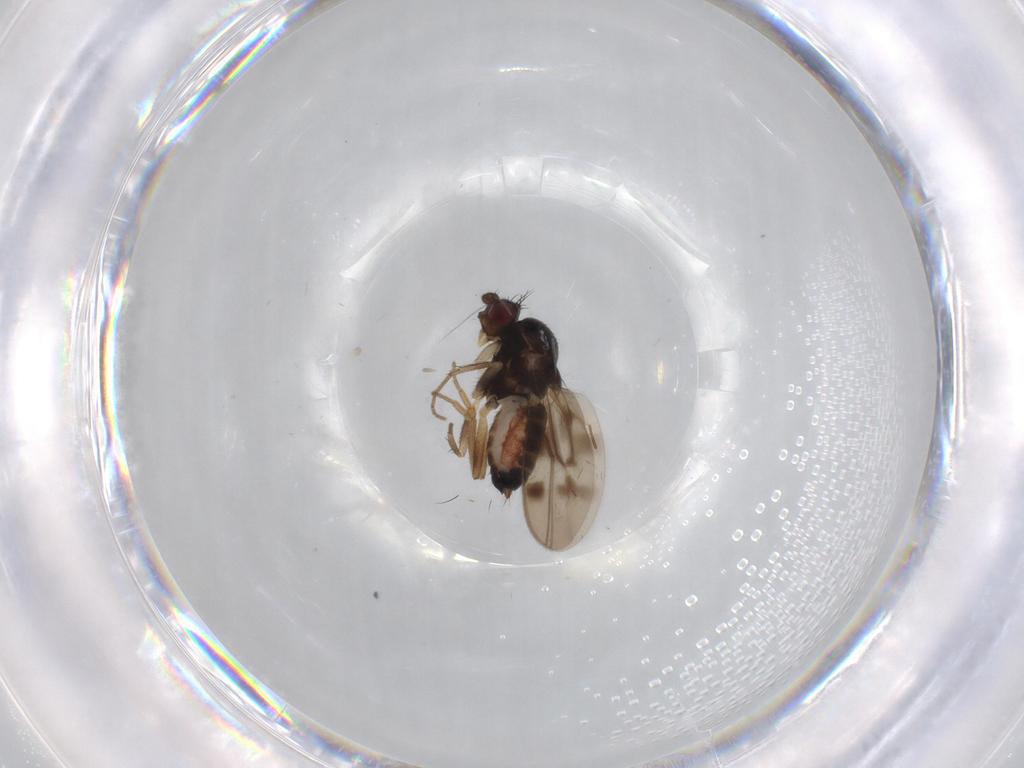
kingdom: Animalia
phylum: Arthropoda
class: Insecta
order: Diptera
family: Sphaeroceridae
